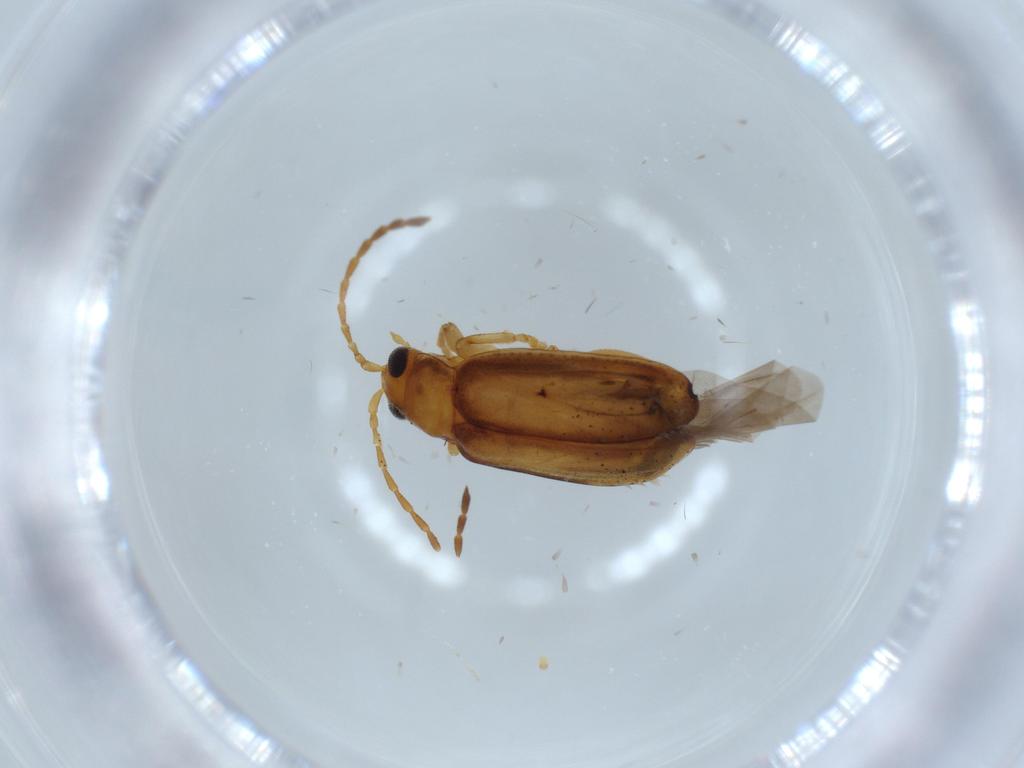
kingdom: Animalia
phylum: Arthropoda
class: Insecta
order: Coleoptera
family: Chrysomelidae
